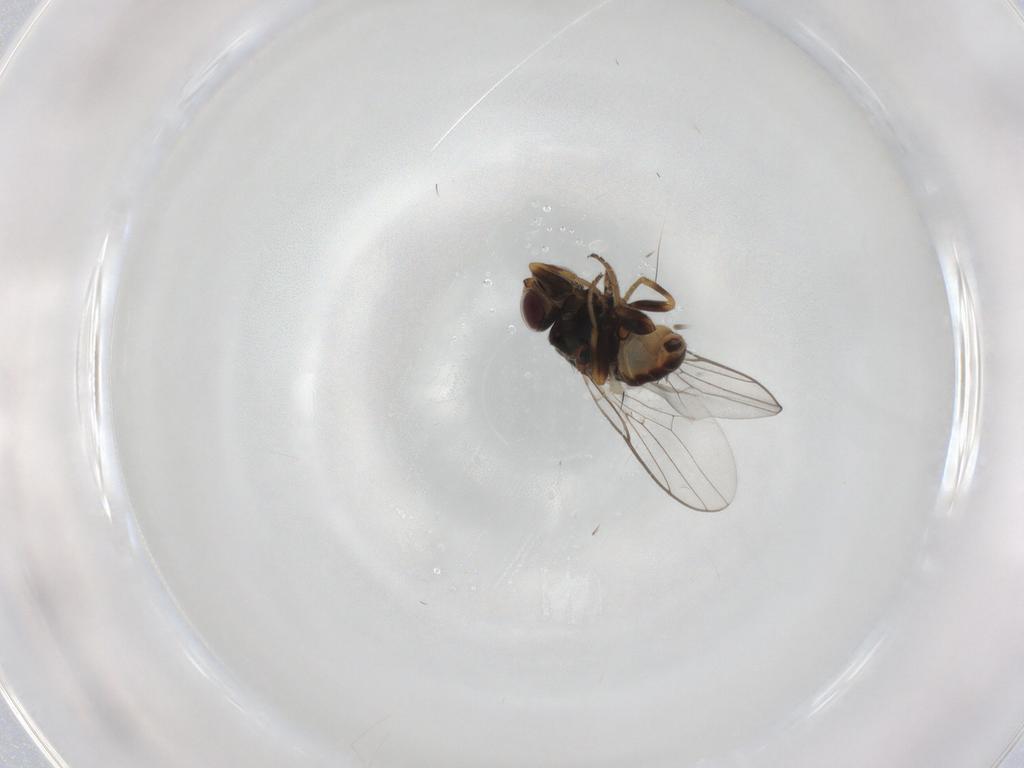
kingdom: Animalia
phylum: Arthropoda
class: Insecta
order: Diptera
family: Chloropidae
